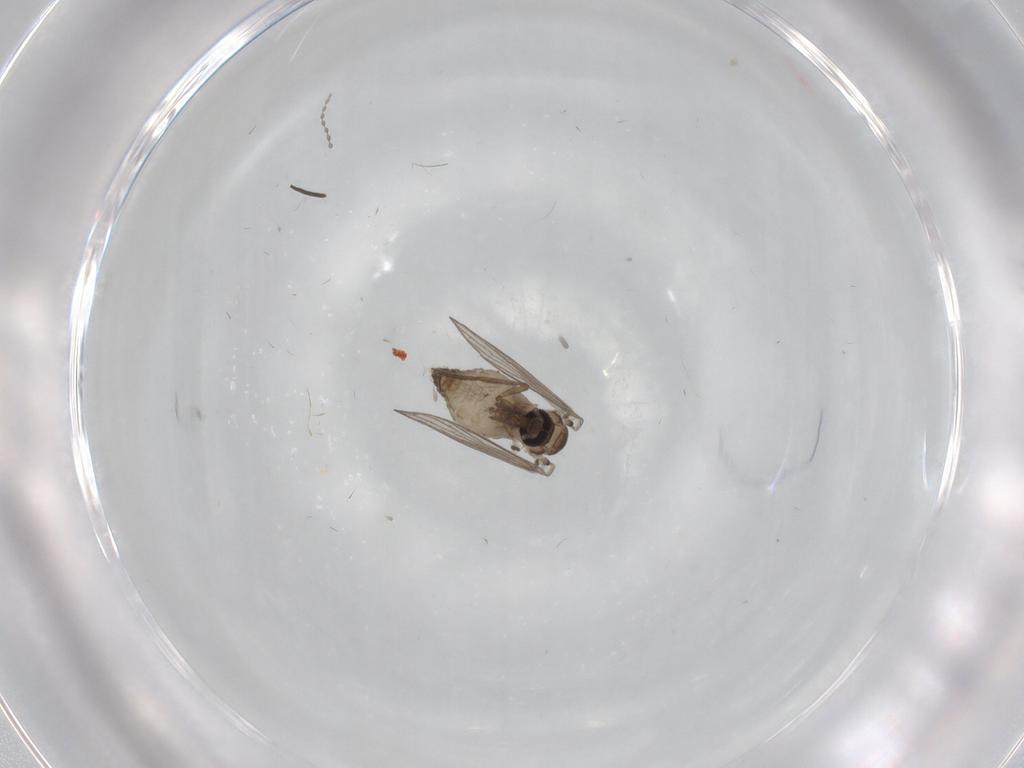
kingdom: Animalia
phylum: Arthropoda
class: Insecta
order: Diptera
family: Psychodidae
